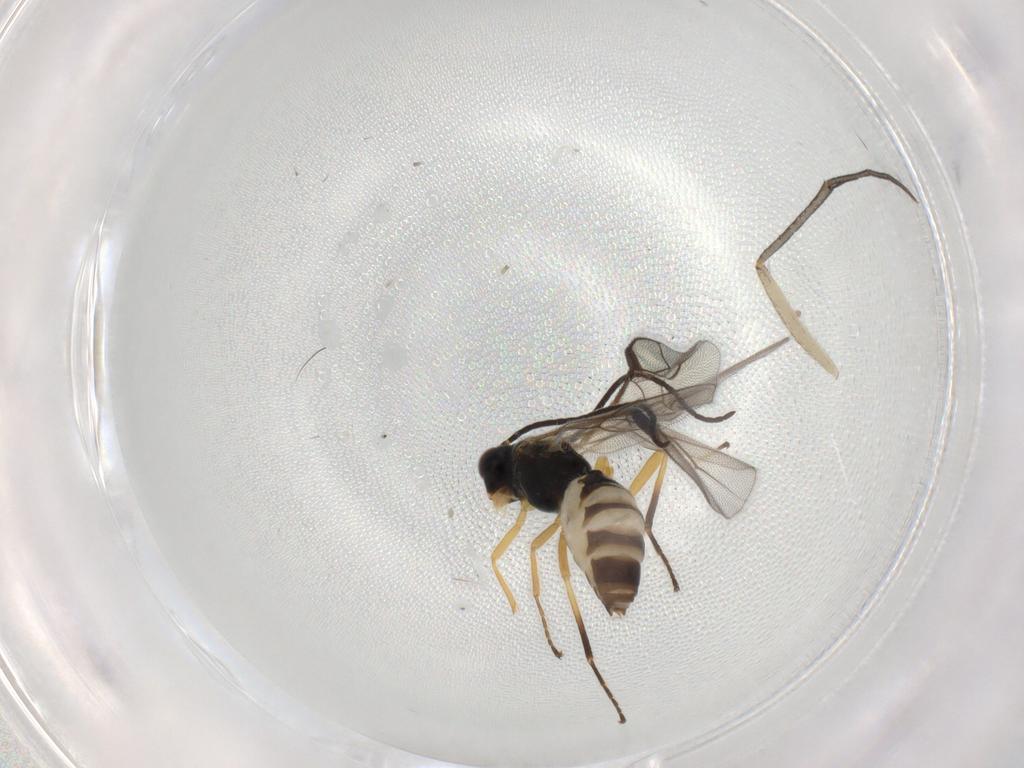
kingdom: Animalia
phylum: Arthropoda
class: Insecta
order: Hymenoptera
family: Braconidae
